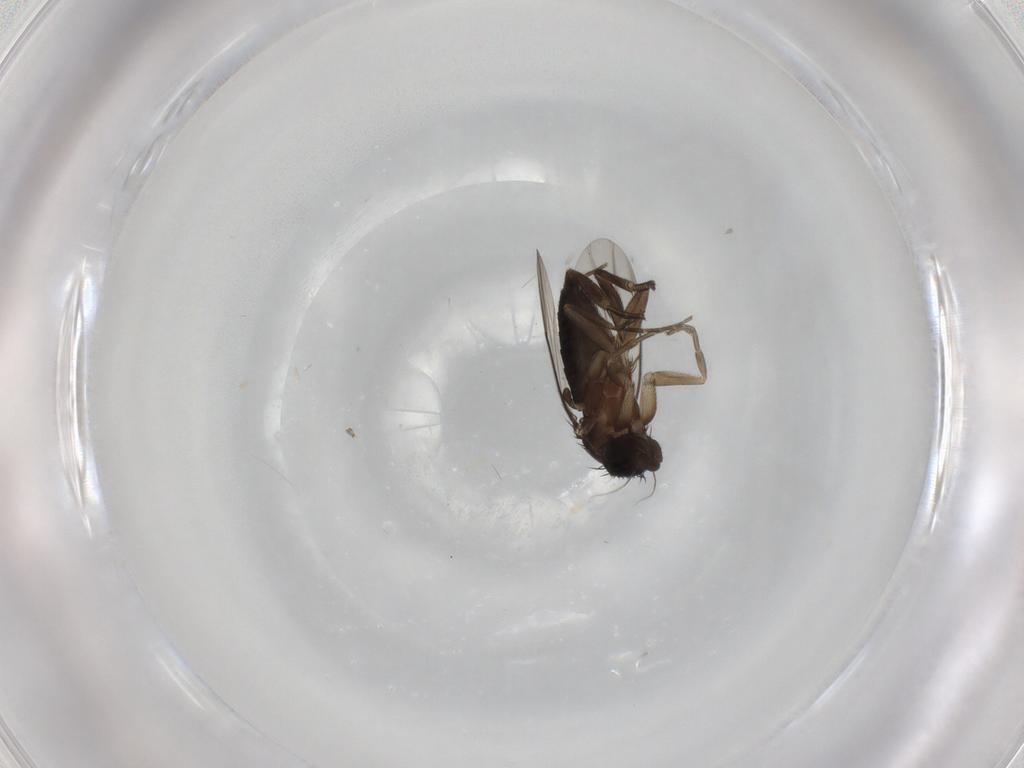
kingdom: Animalia
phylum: Arthropoda
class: Insecta
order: Diptera
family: Phoridae
